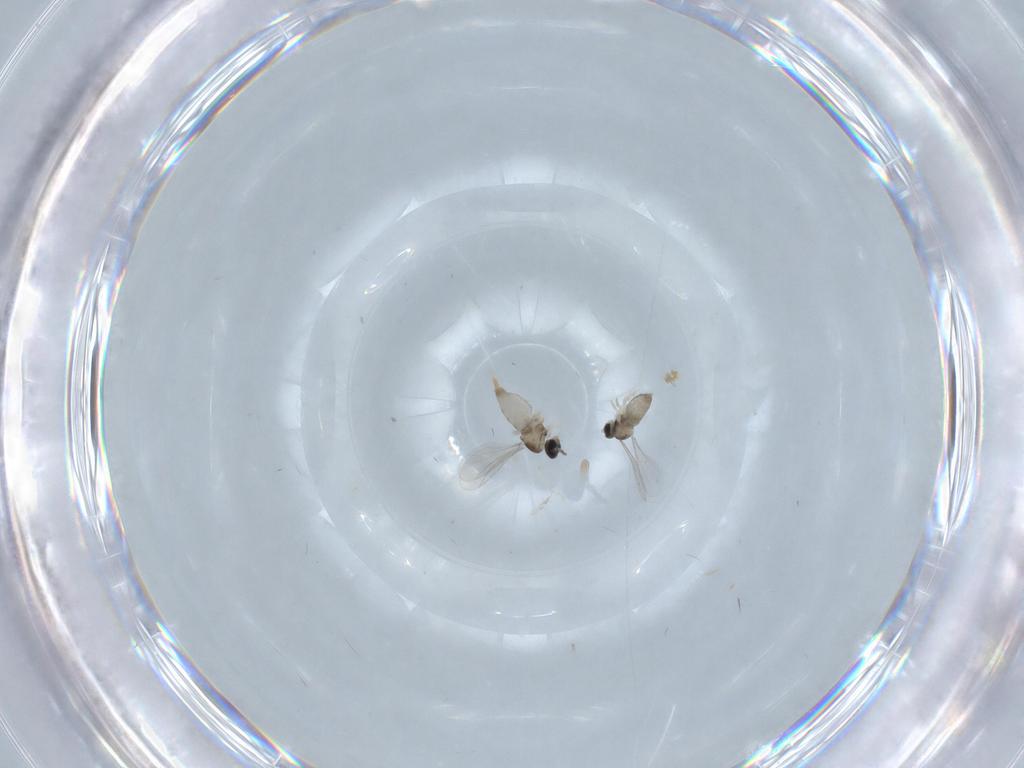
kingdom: Animalia
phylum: Arthropoda
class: Insecta
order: Diptera
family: Cecidomyiidae
